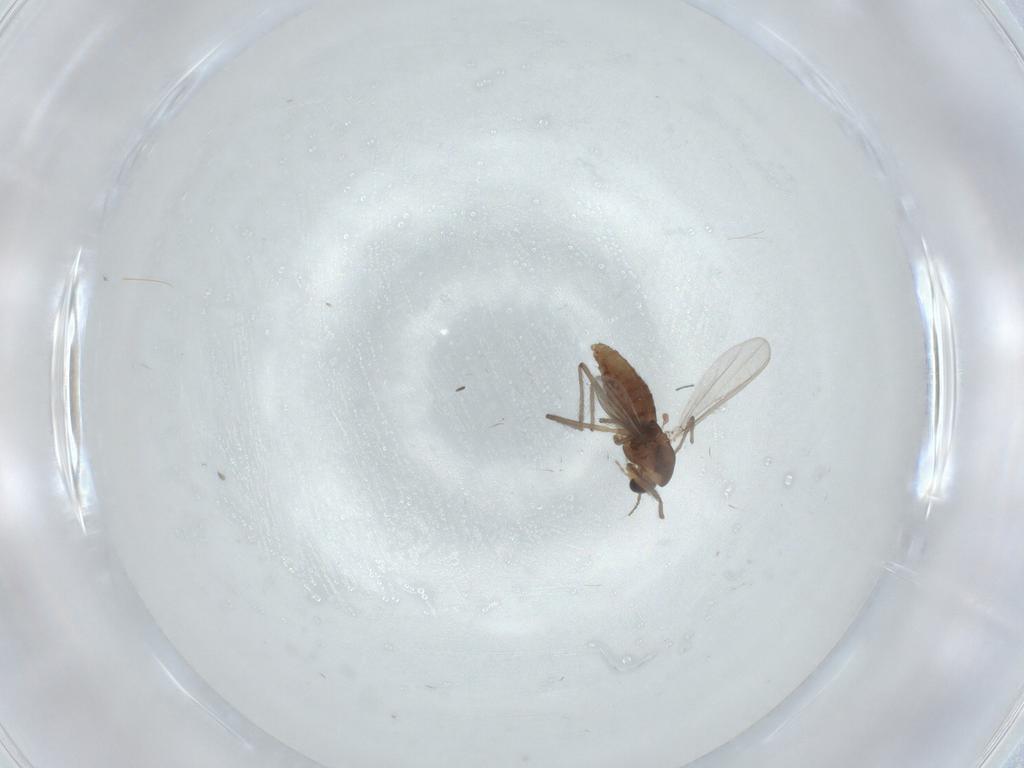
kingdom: Animalia
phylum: Arthropoda
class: Insecta
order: Diptera
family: Chironomidae
